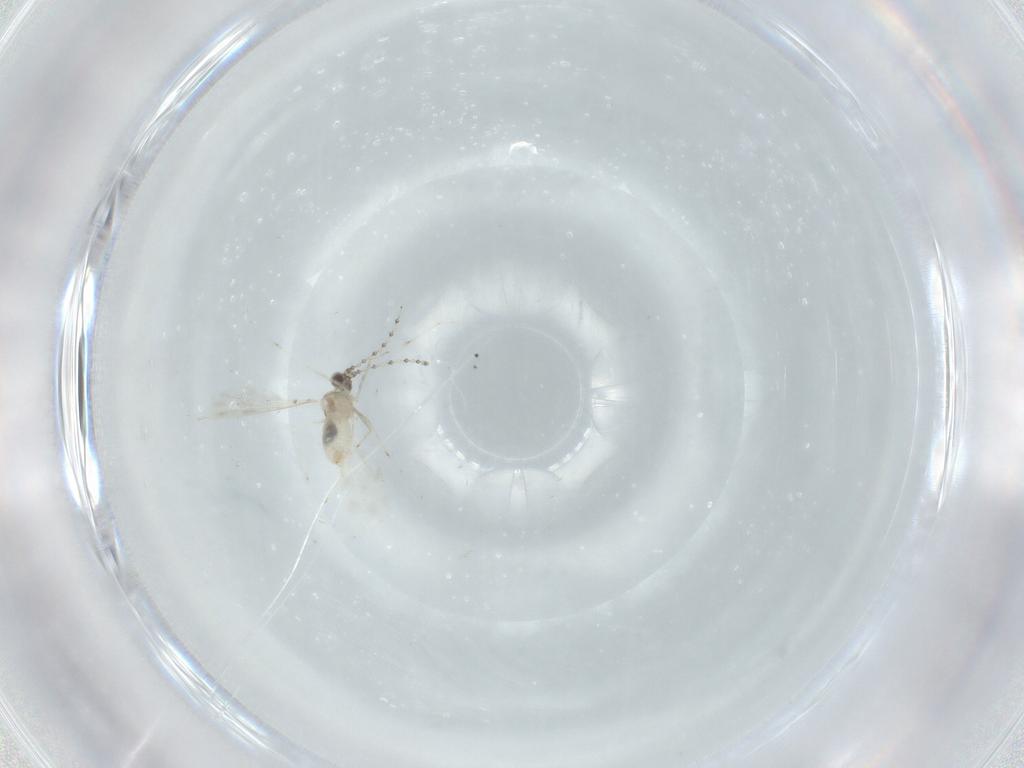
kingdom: Animalia
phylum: Arthropoda
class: Insecta
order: Diptera
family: Cecidomyiidae
